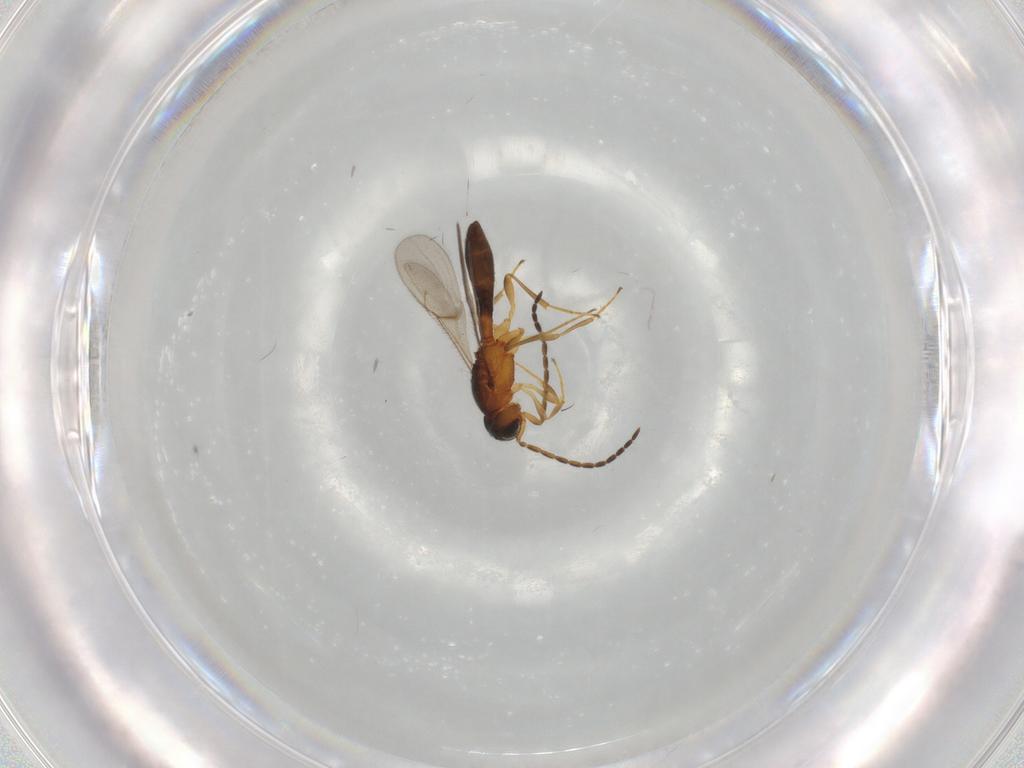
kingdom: Animalia
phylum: Arthropoda
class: Insecta
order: Hymenoptera
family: Scelionidae
